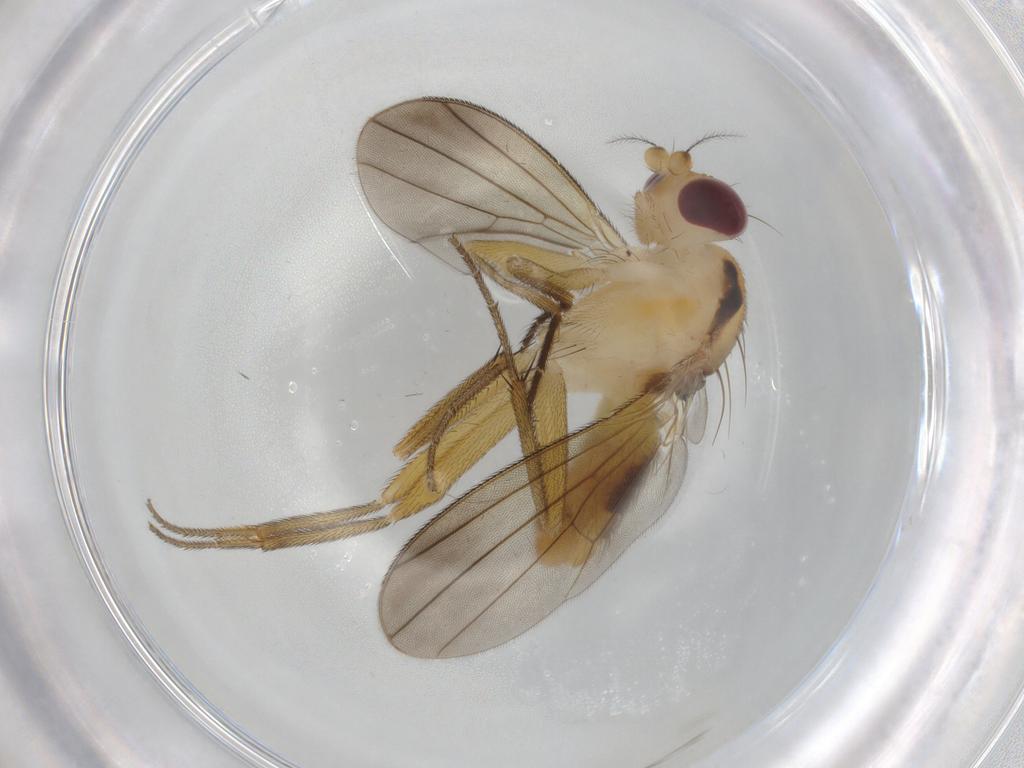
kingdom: Animalia
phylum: Arthropoda
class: Insecta
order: Diptera
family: Clusiidae
